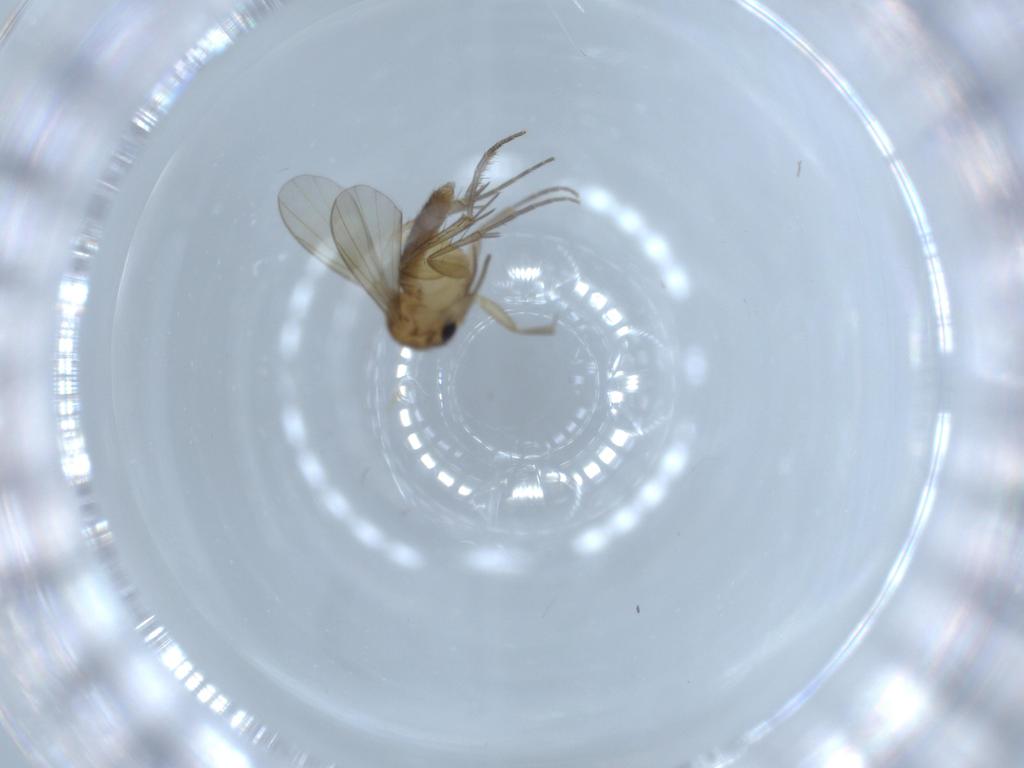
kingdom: Animalia
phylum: Arthropoda
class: Insecta
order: Diptera
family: Mycetophilidae
